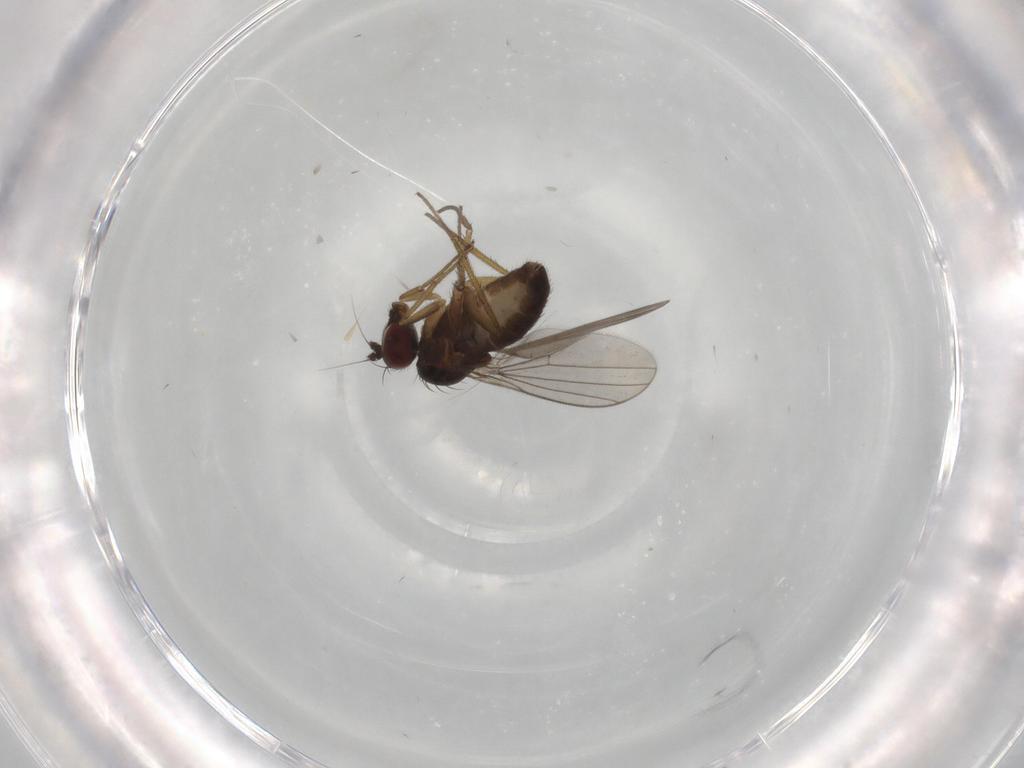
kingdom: Animalia
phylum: Arthropoda
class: Insecta
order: Diptera
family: Dolichopodidae
